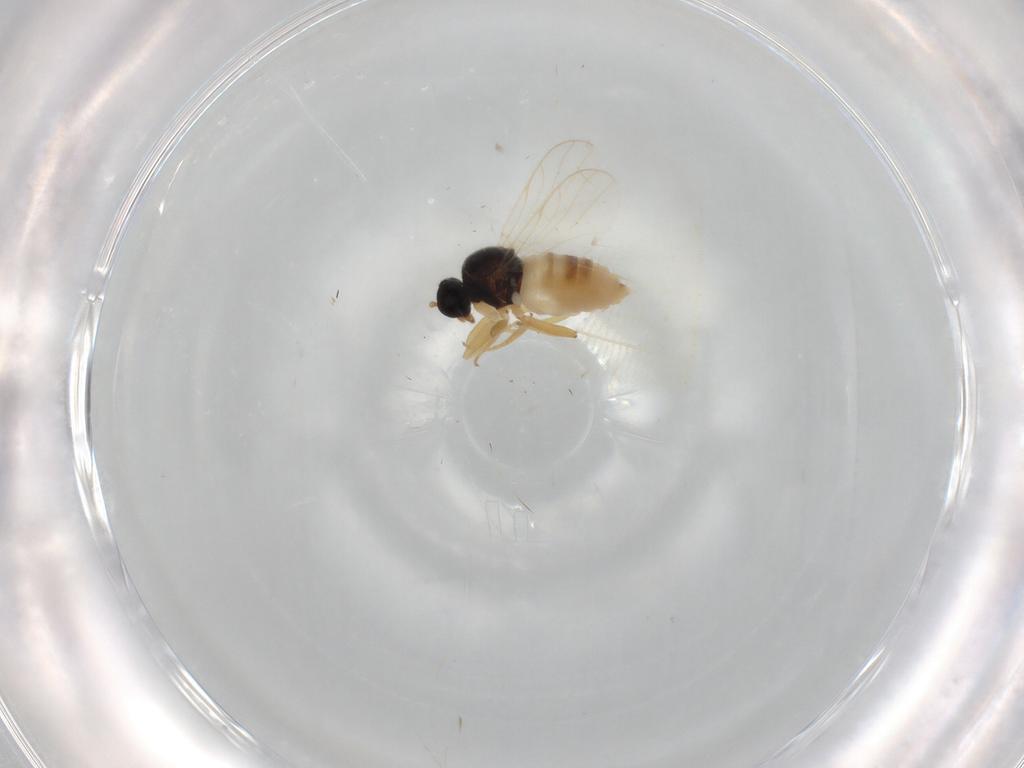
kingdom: Animalia
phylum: Arthropoda
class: Insecta
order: Diptera
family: Hybotidae
